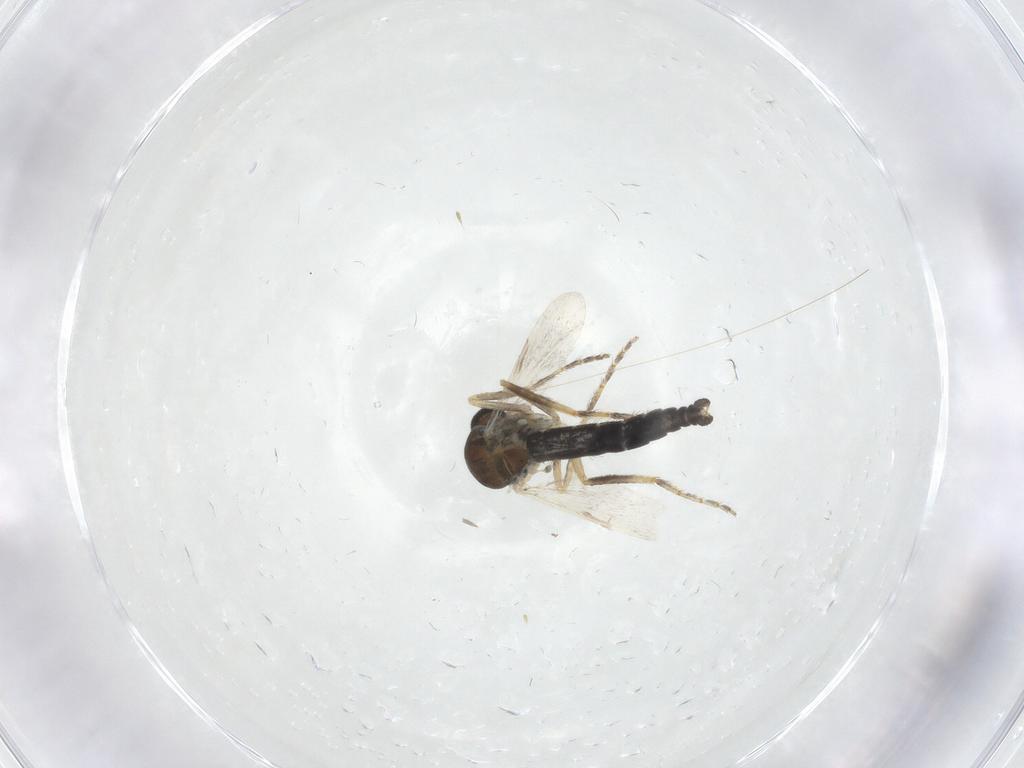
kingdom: Animalia
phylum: Arthropoda
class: Insecta
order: Diptera
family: Ceratopogonidae
